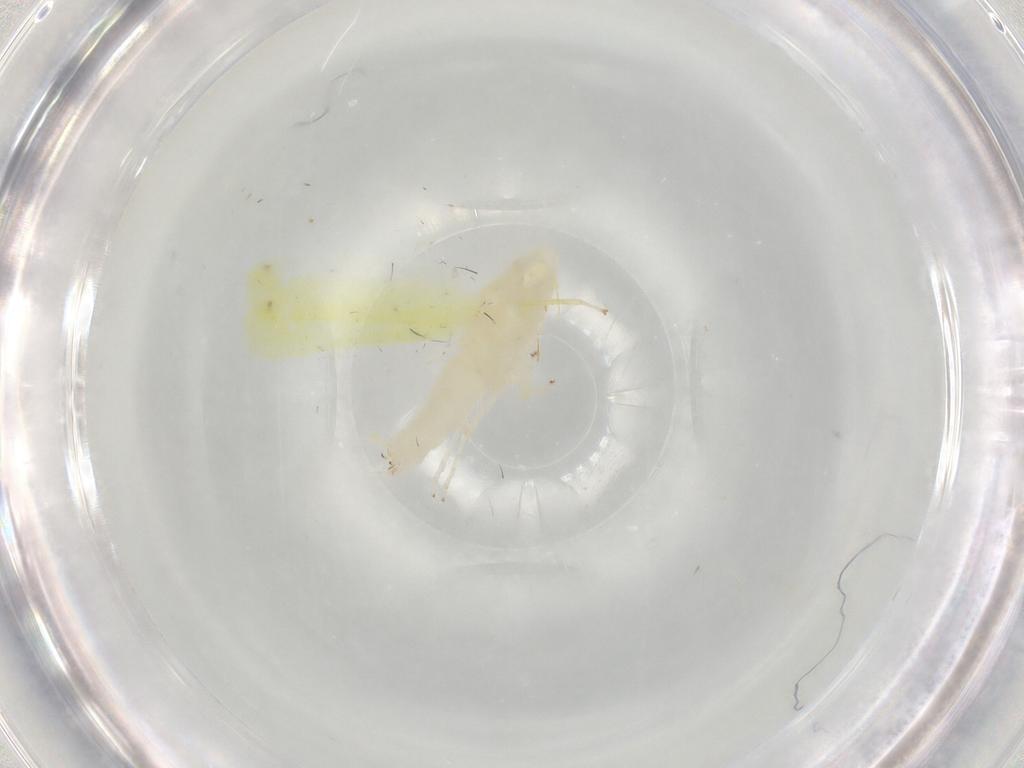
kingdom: Animalia
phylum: Arthropoda
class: Insecta
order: Hemiptera
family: Cicadellidae
